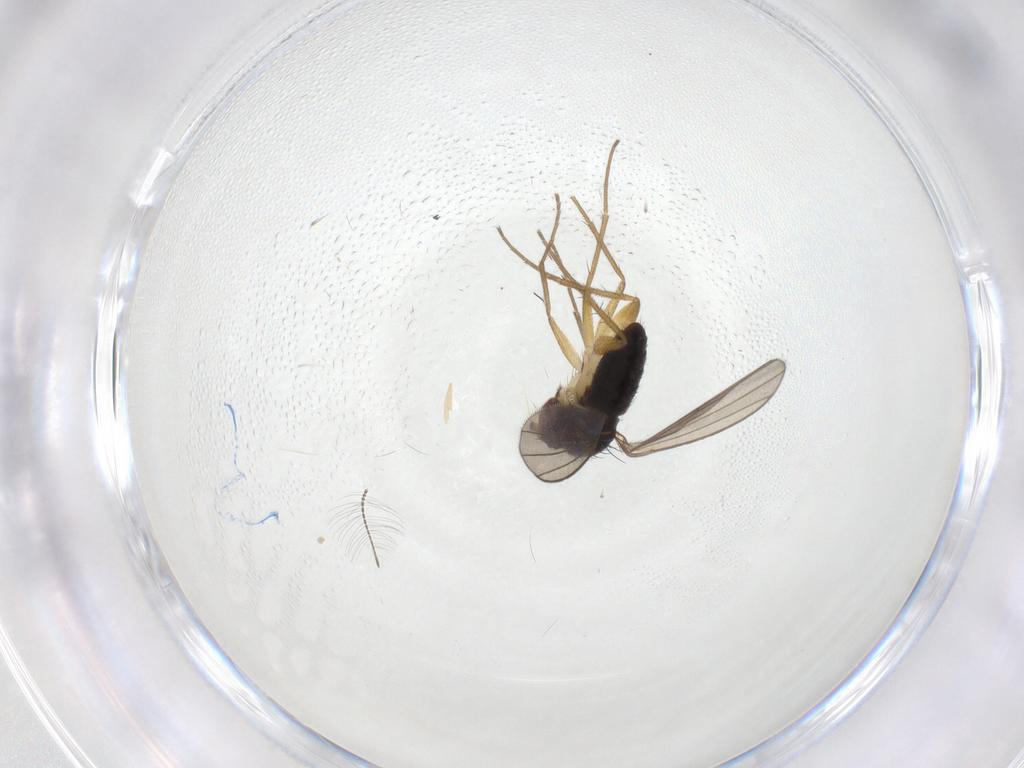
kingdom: Animalia
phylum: Arthropoda
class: Insecta
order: Diptera
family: Dolichopodidae
